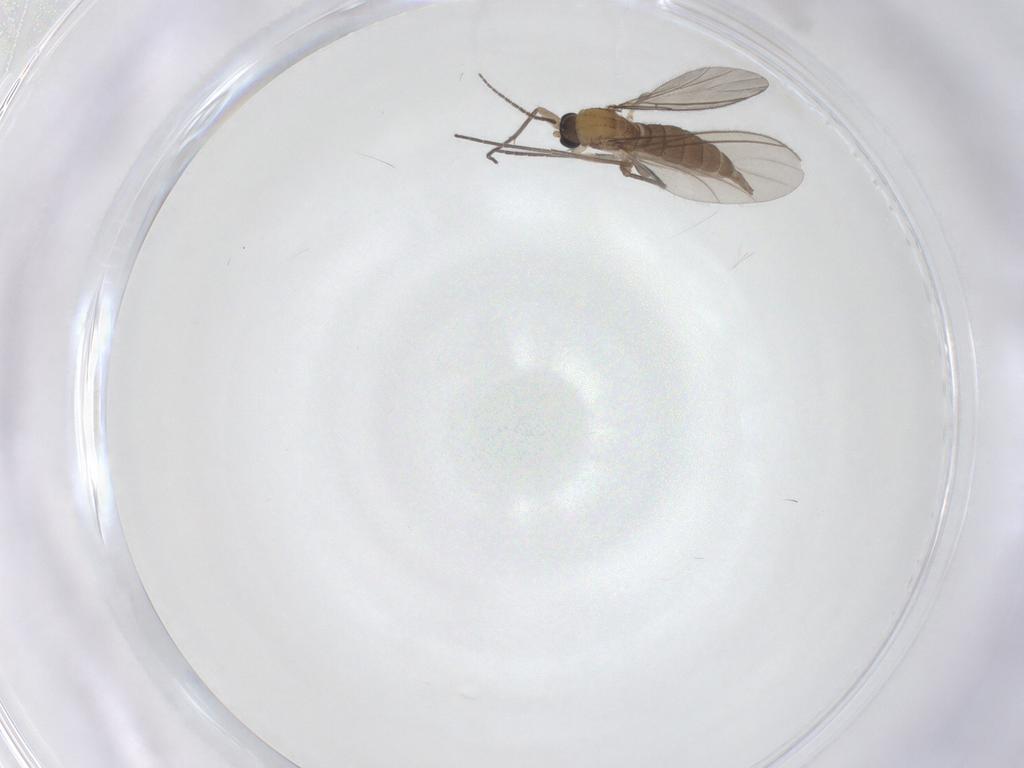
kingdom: Animalia
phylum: Arthropoda
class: Insecta
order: Diptera
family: Sciaridae
